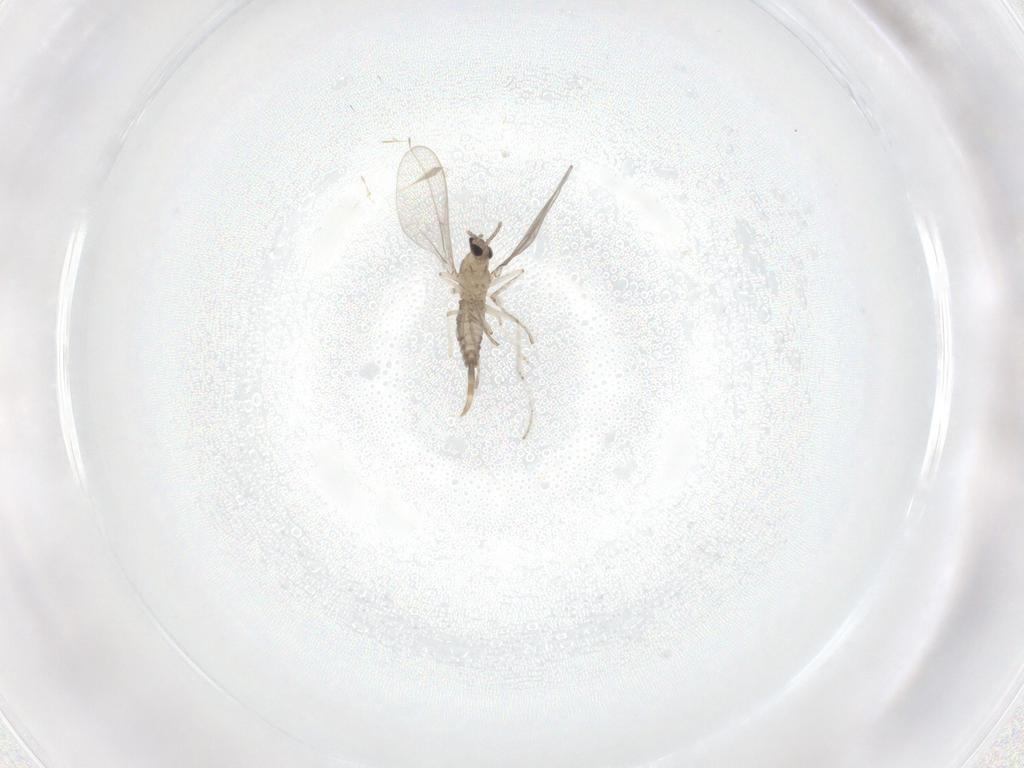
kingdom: Animalia
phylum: Arthropoda
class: Insecta
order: Diptera
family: Cecidomyiidae
